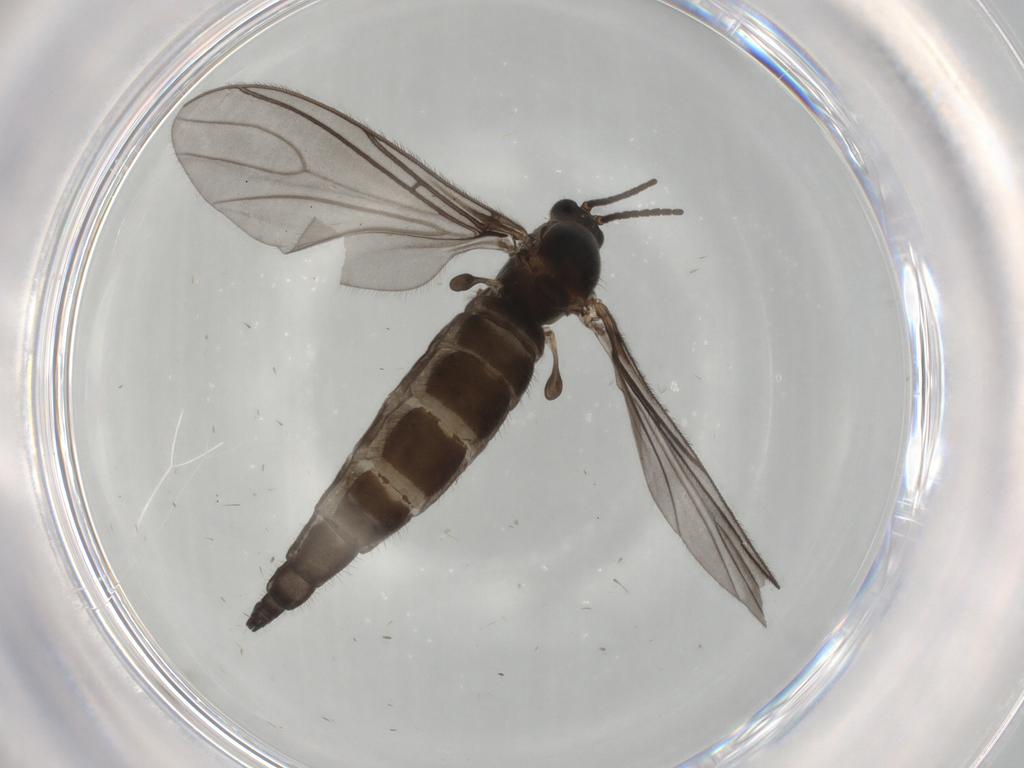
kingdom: Animalia
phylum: Arthropoda
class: Insecta
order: Diptera
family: Sciaridae
